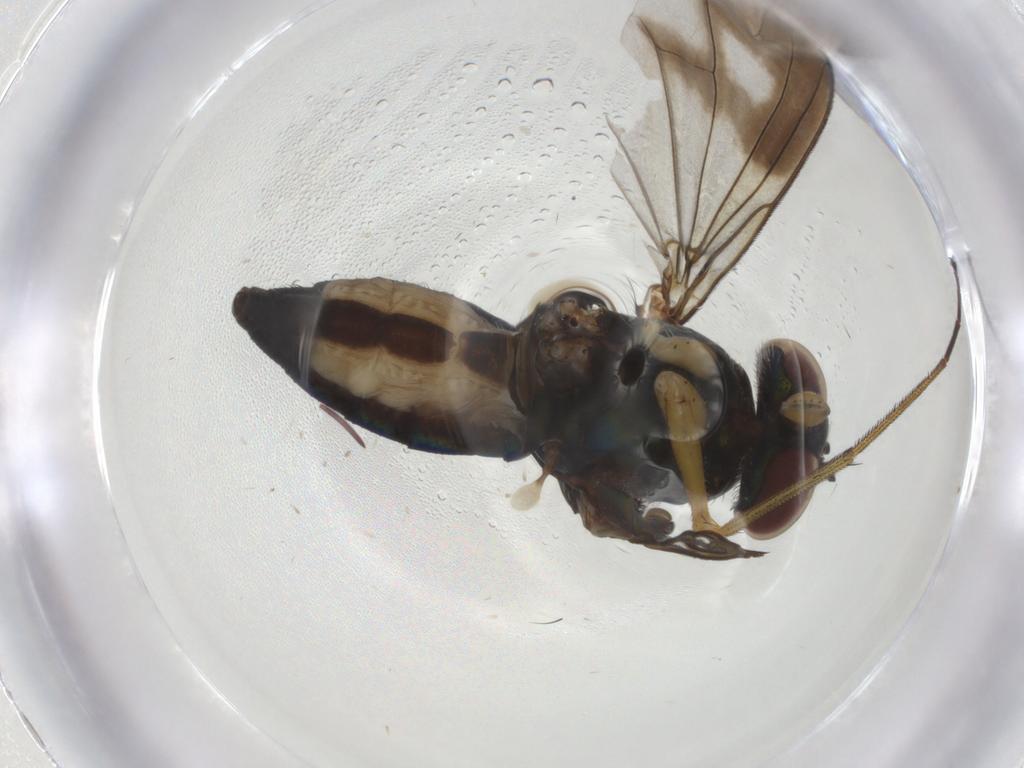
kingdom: Animalia
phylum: Arthropoda
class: Insecta
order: Diptera
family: Dolichopodidae
